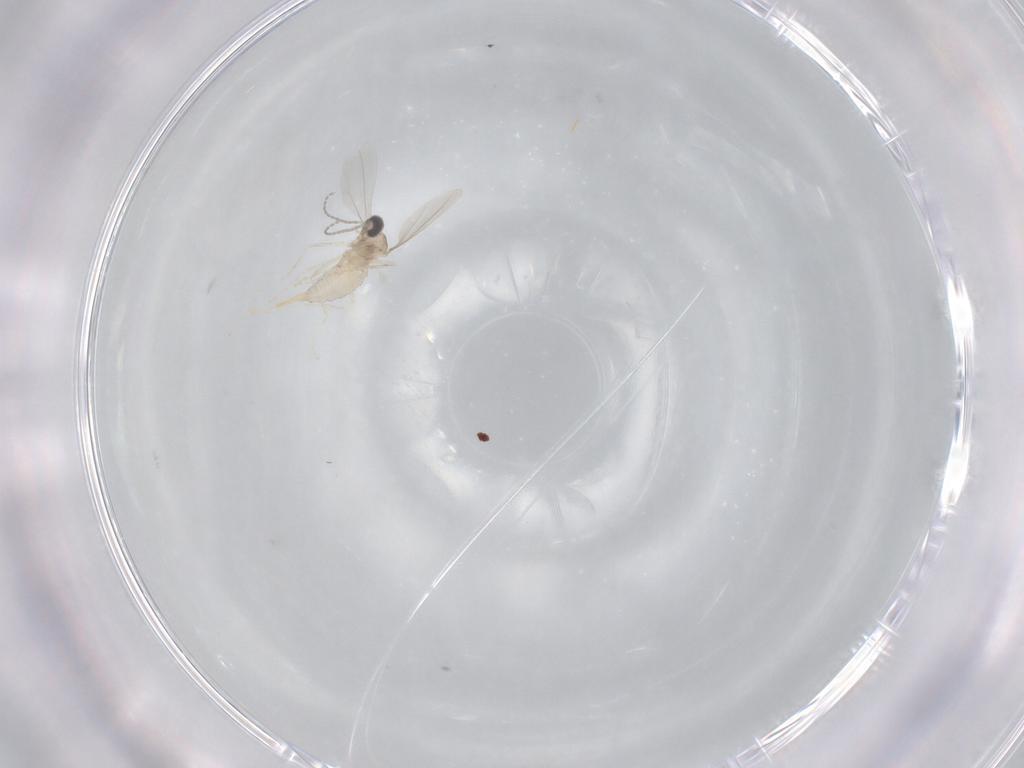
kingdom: Animalia
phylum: Arthropoda
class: Insecta
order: Diptera
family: Cecidomyiidae
